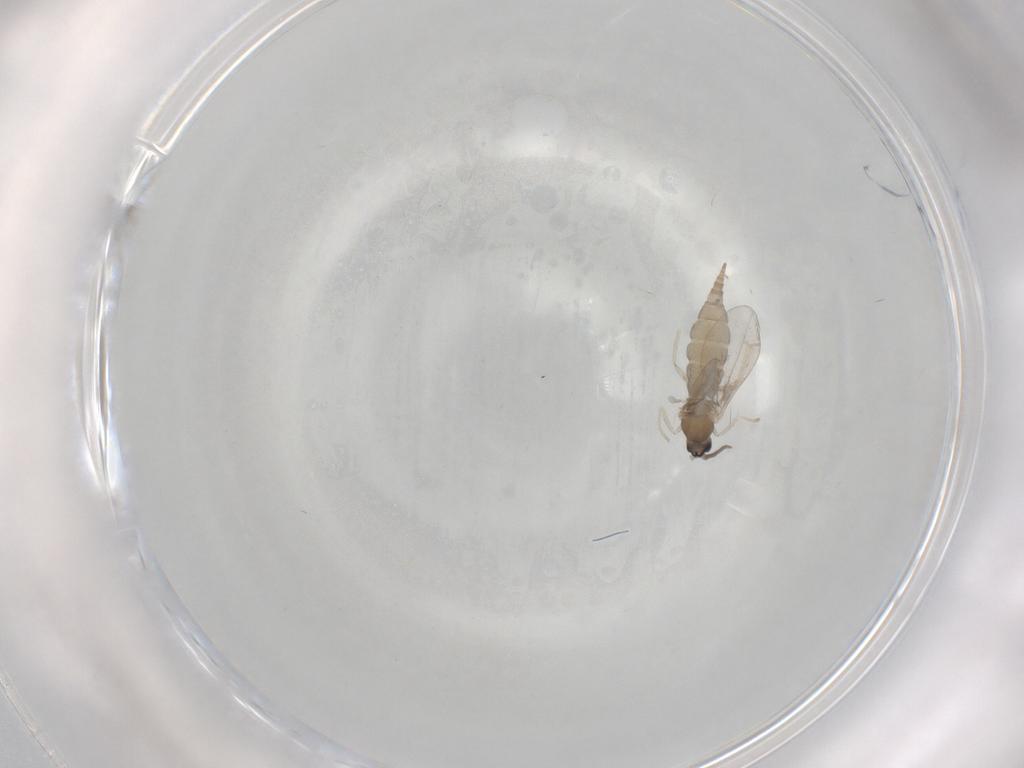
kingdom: Animalia
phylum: Arthropoda
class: Insecta
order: Diptera
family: Cecidomyiidae
